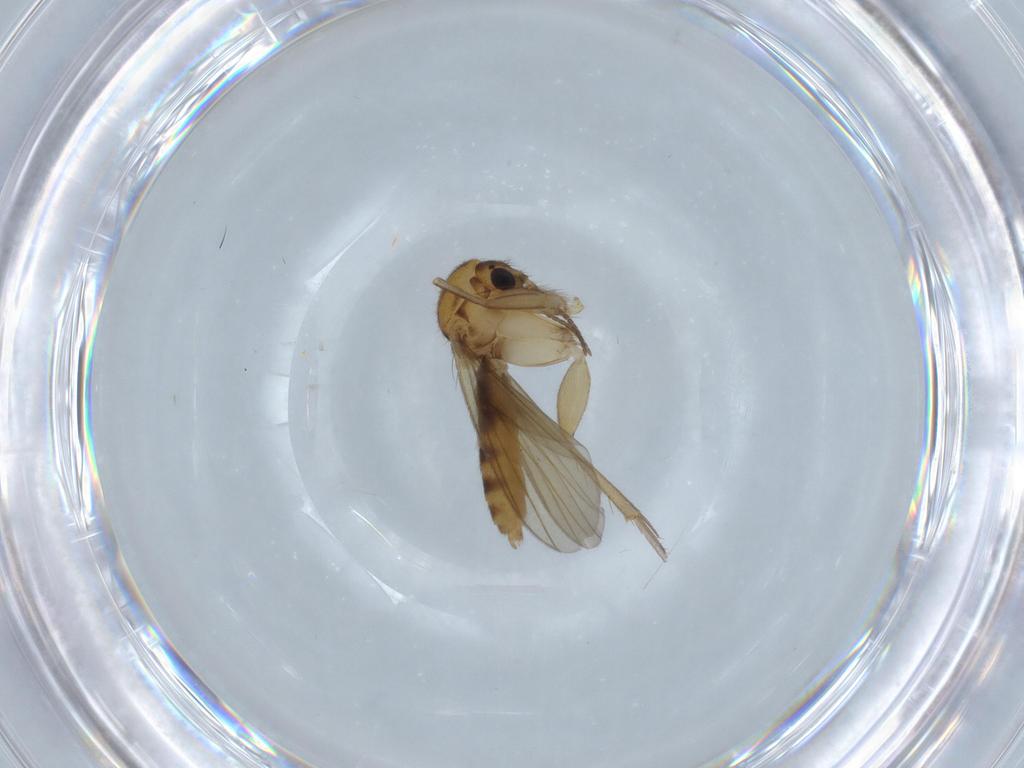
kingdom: Animalia
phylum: Arthropoda
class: Insecta
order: Diptera
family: Mycetophilidae
